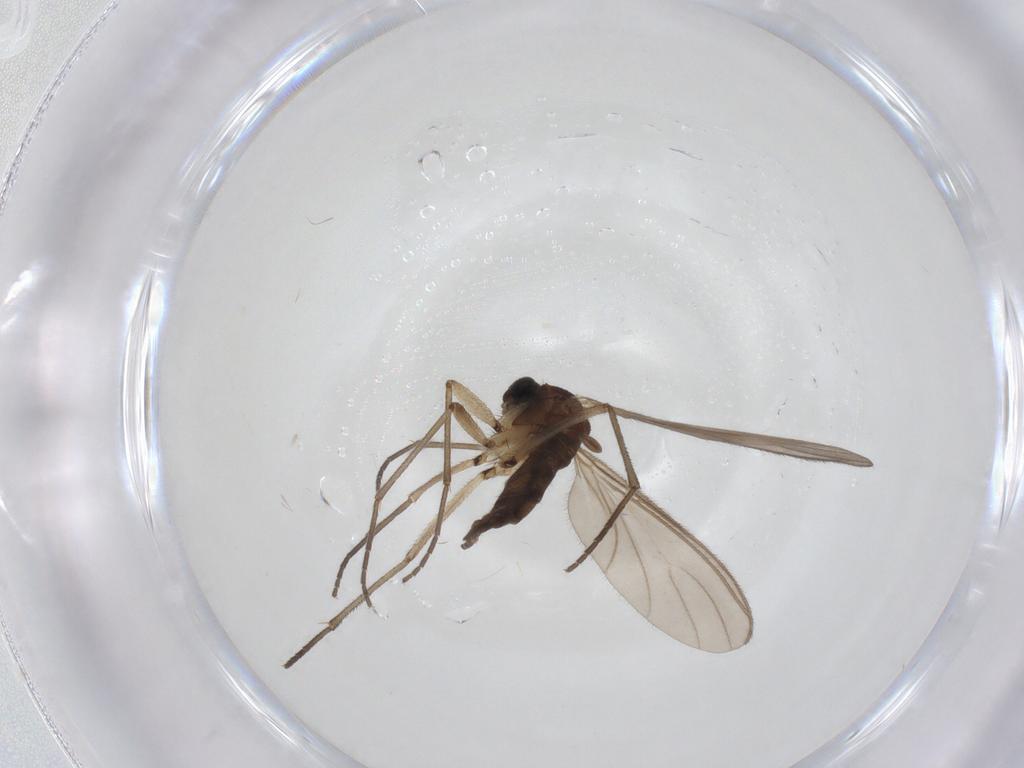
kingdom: Animalia
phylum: Arthropoda
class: Insecta
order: Diptera
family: Sciaridae
